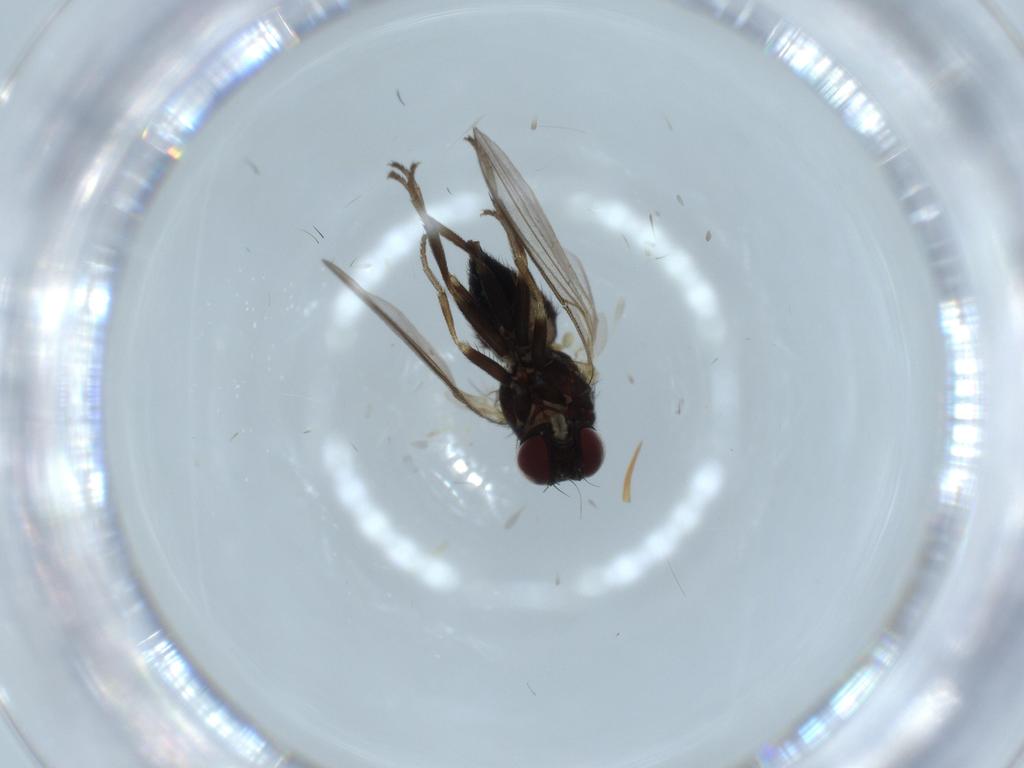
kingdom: Animalia
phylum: Arthropoda
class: Insecta
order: Diptera
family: Agromyzidae
